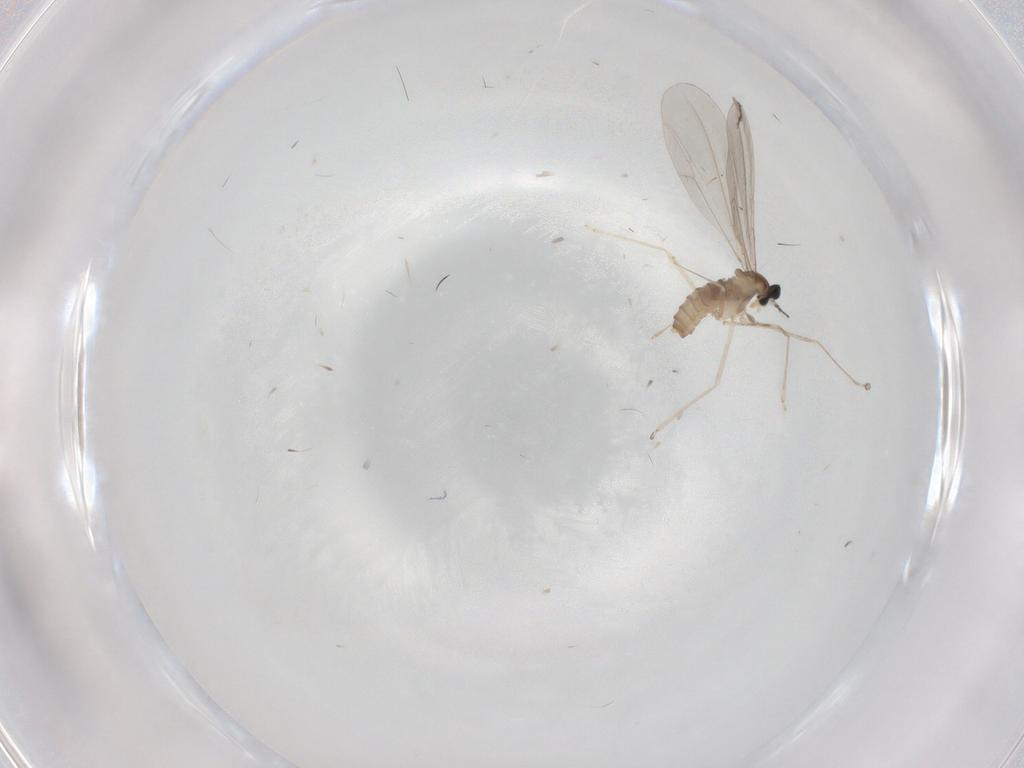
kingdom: Animalia
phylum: Arthropoda
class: Insecta
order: Diptera
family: Cecidomyiidae
